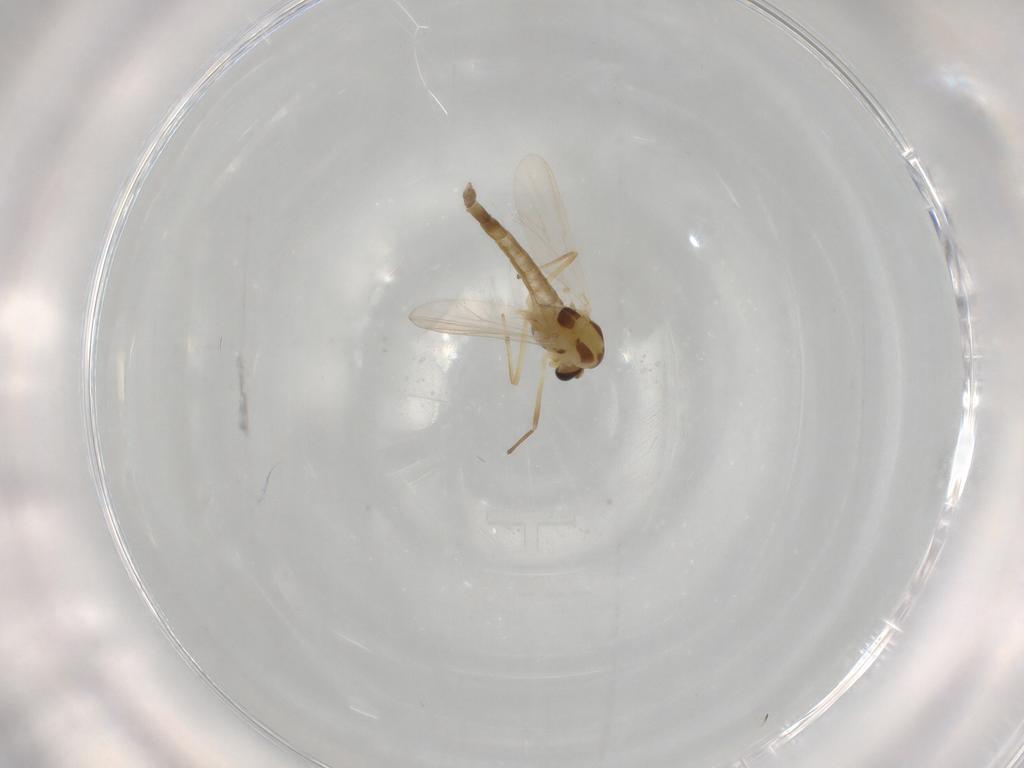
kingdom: Animalia
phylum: Arthropoda
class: Insecta
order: Diptera
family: Chironomidae
